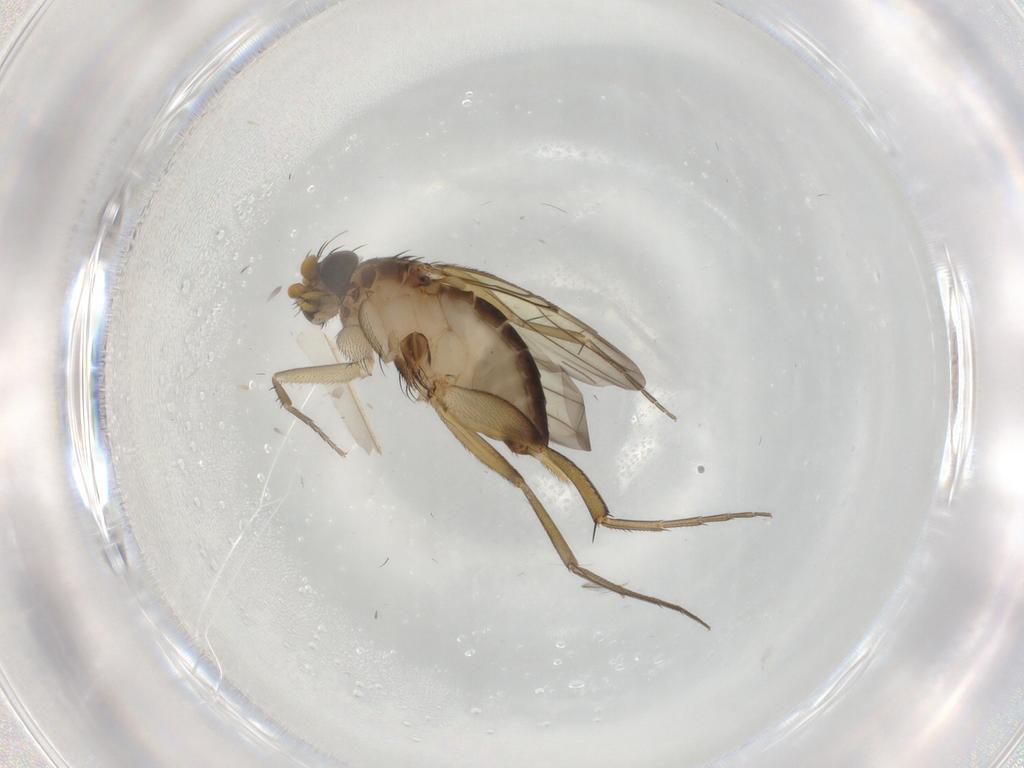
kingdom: Animalia
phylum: Arthropoda
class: Insecta
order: Diptera
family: Phoridae
